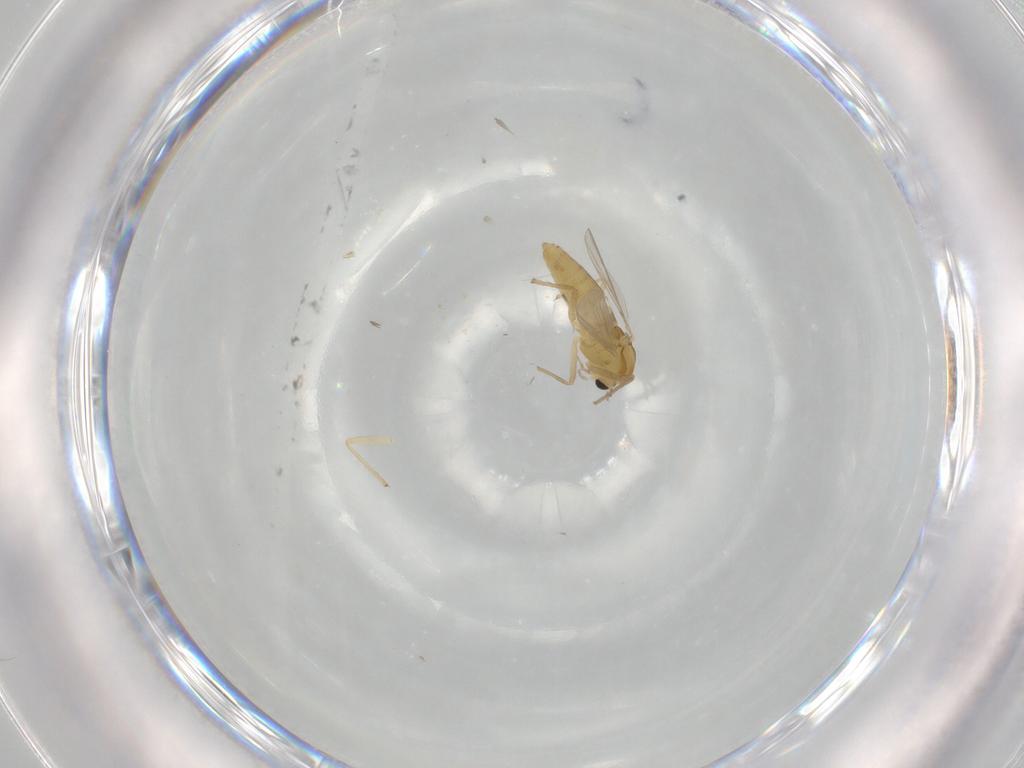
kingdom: Animalia
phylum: Arthropoda
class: Insecta
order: Diptera
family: Chironomidae
